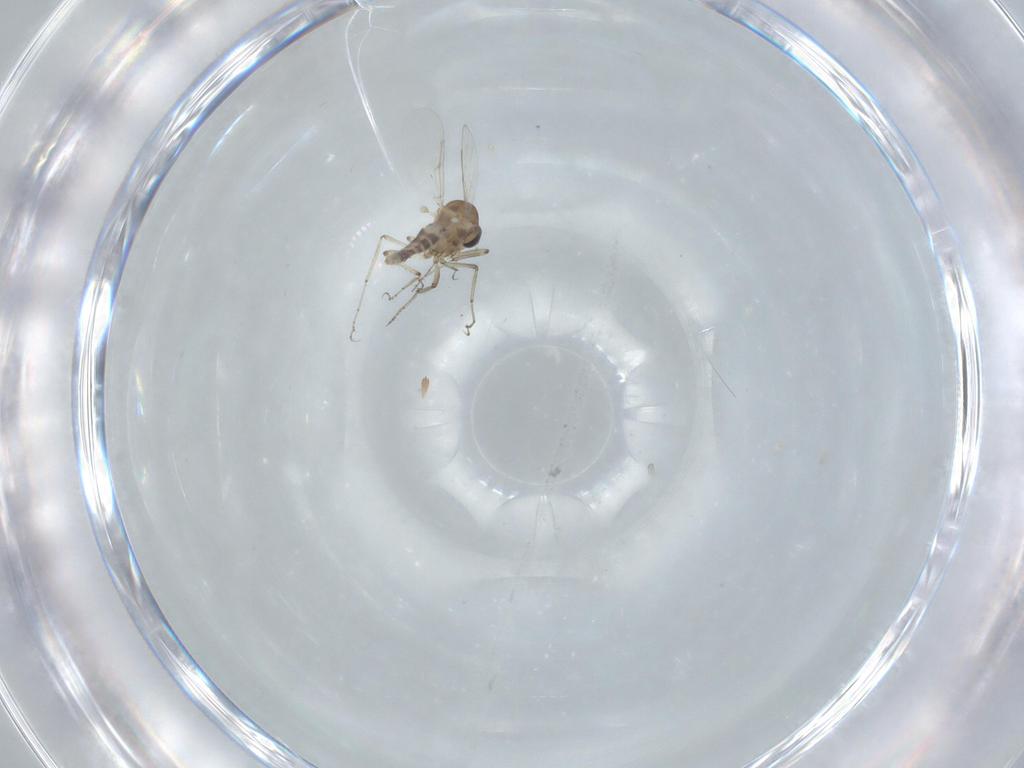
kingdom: Animalia
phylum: Arthropoda
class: Insecta
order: Diptera
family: Ceratopogonidae
